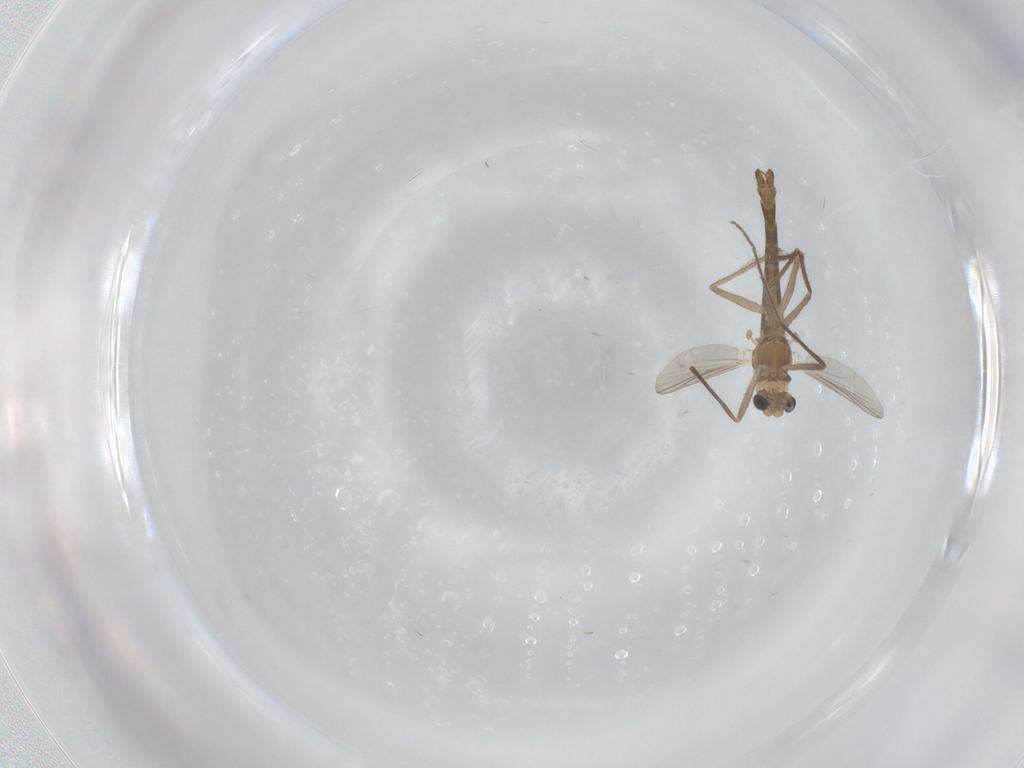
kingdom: Animalia
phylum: Arthropoda
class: Insecta
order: Diptera
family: Chironomidae
